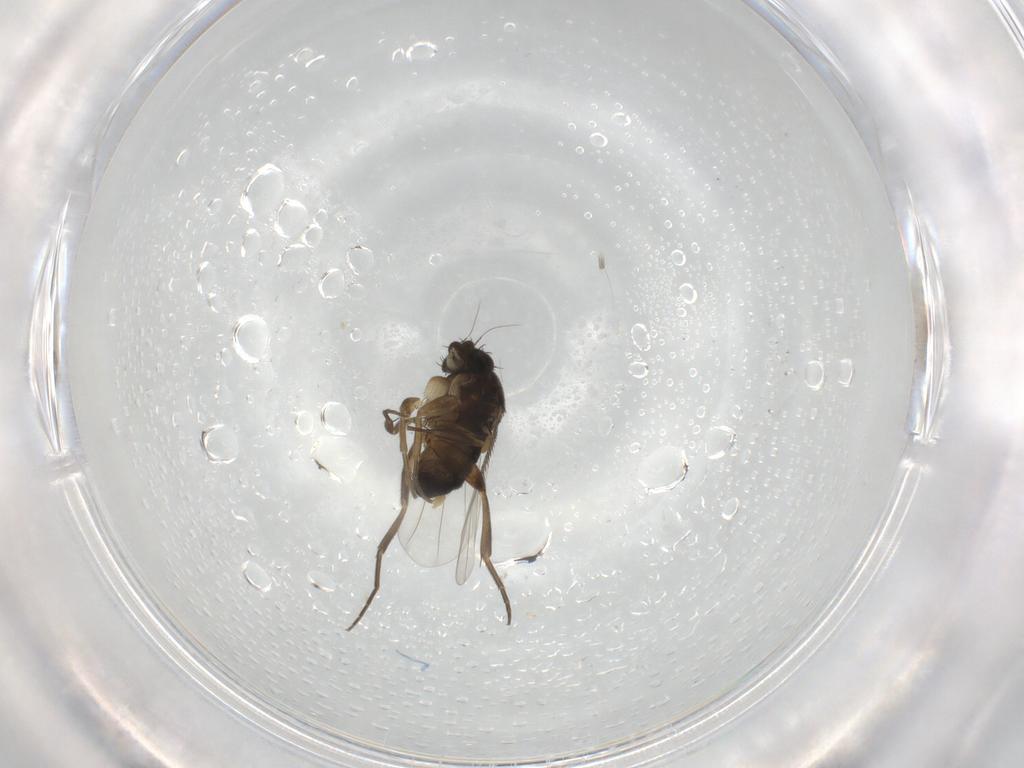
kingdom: Animalia
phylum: Arthropoda
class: Insecta
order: Diptera
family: Phoridae
